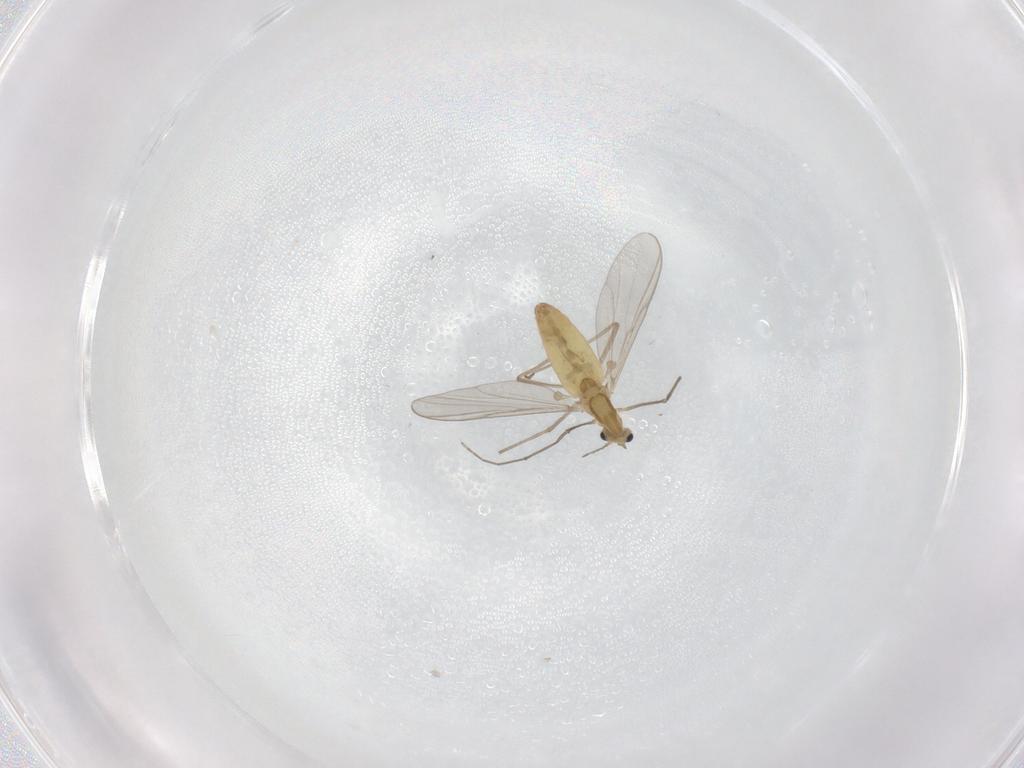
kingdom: Animalia
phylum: Arthropoda
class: Insecta
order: Diptera
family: Chironomidae
